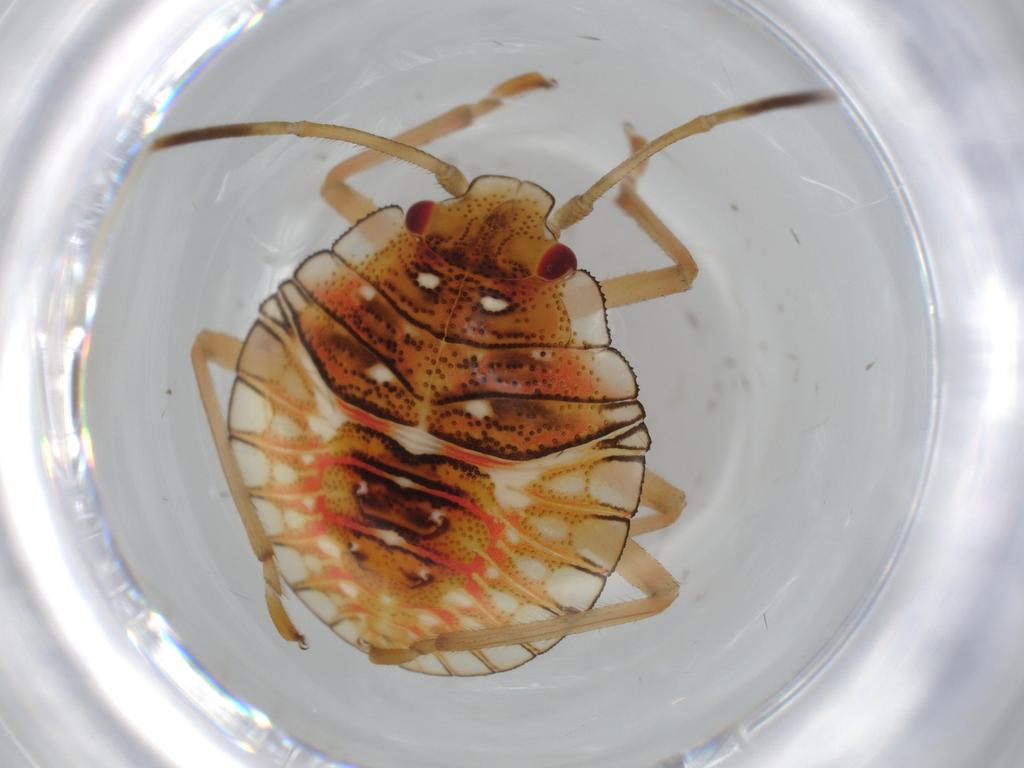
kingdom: Animalia
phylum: Arthropoda
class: Insecta
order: Hemiptera
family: Pentatomidae
